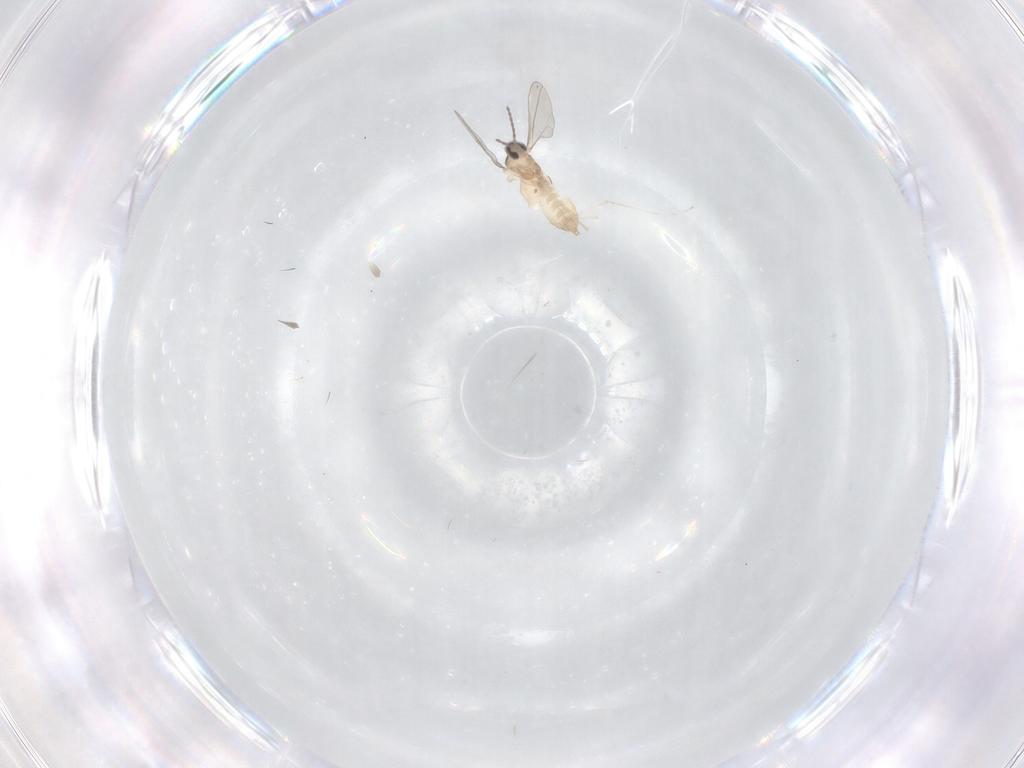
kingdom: Animalia
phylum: Arthropoda
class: Insecta
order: Diptera
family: Cecidomyiidae
